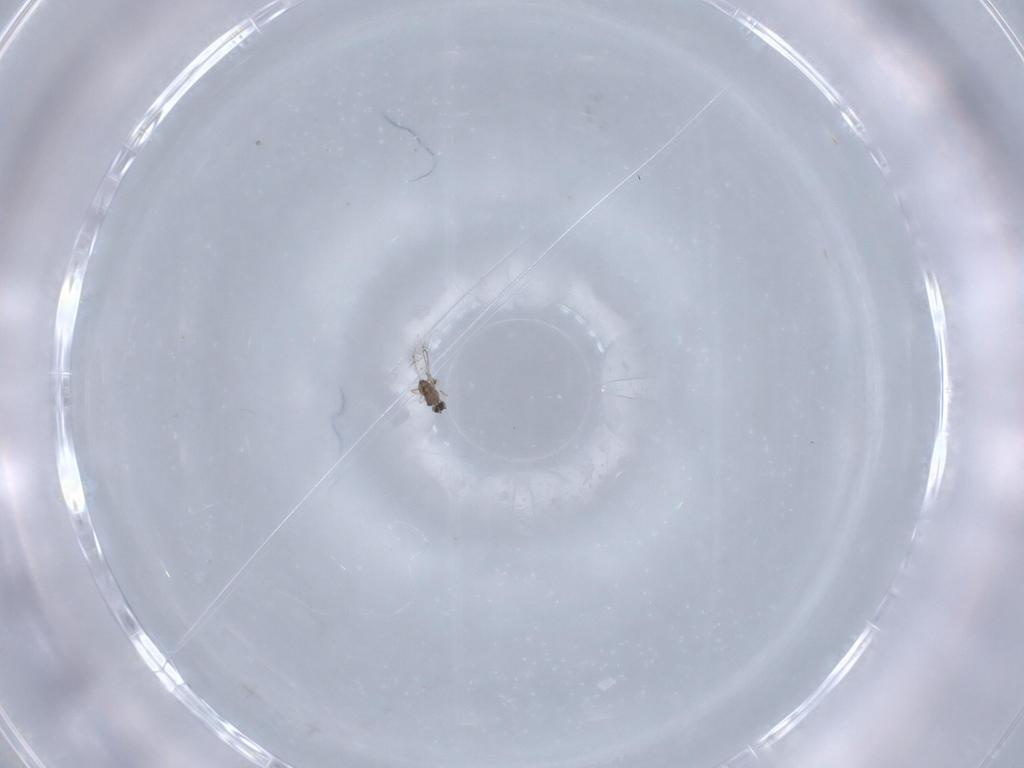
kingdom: Animalia
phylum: Arthropoda
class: Insecta
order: Hymenoptera
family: Mymaridae
